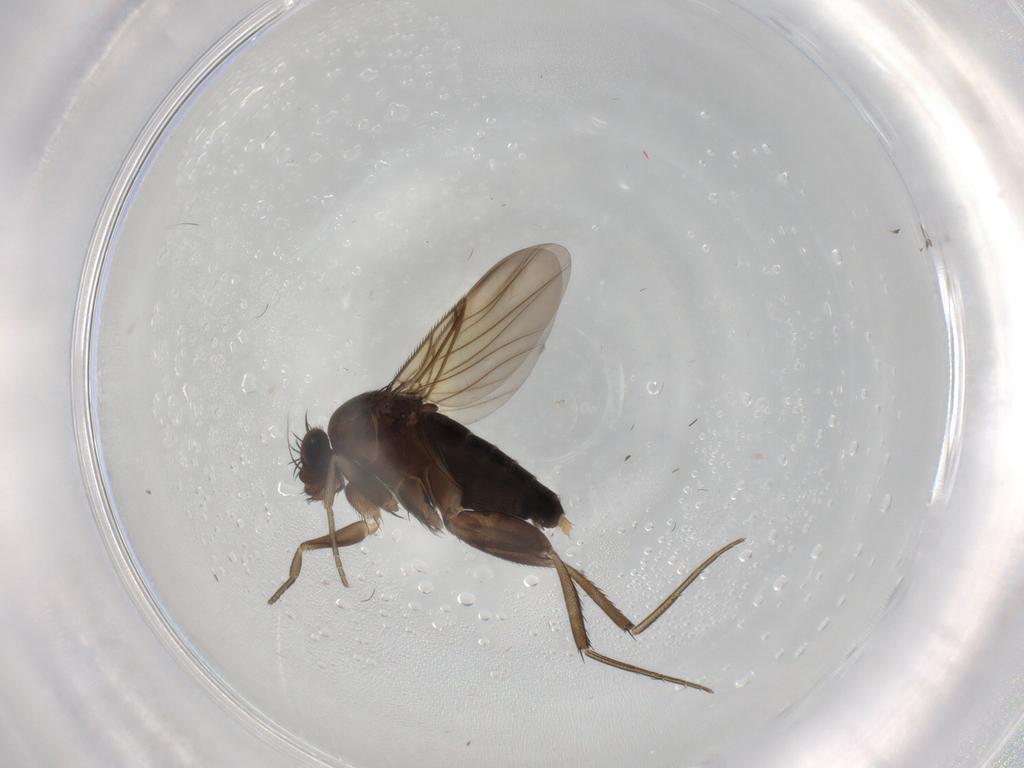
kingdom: Animalia
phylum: Arthropoda
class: Insecta
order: Diptera
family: Phoridae
